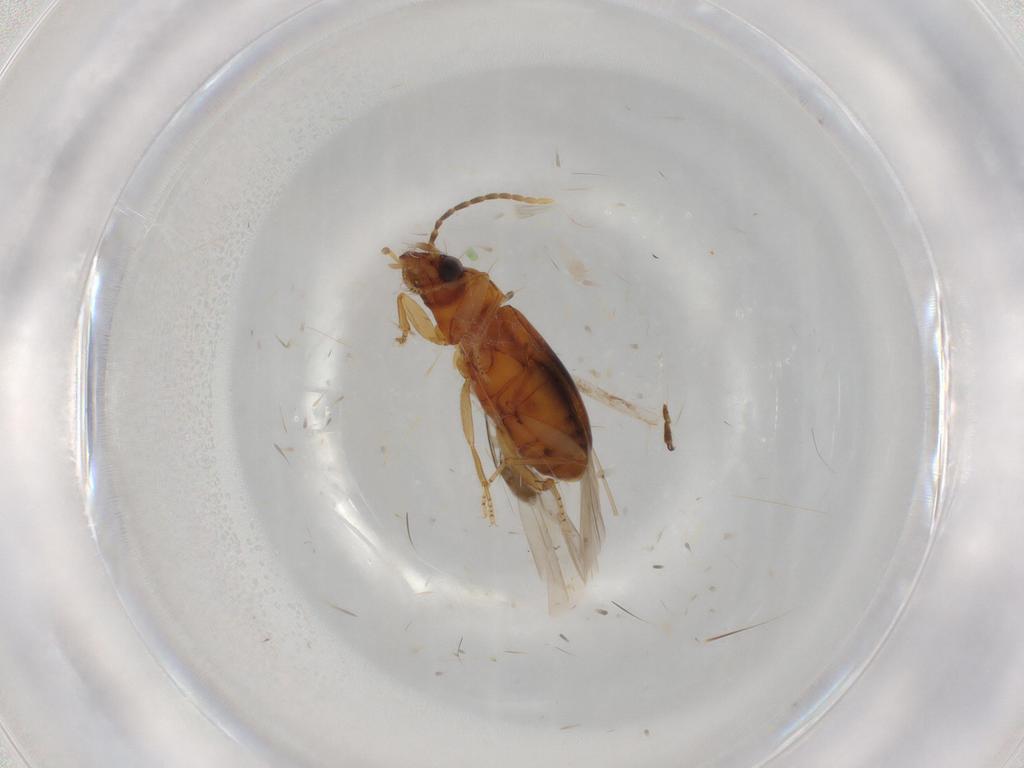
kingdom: Animalia
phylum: Arthropoda
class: Insecta
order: Coleoptera
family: Carabidae
